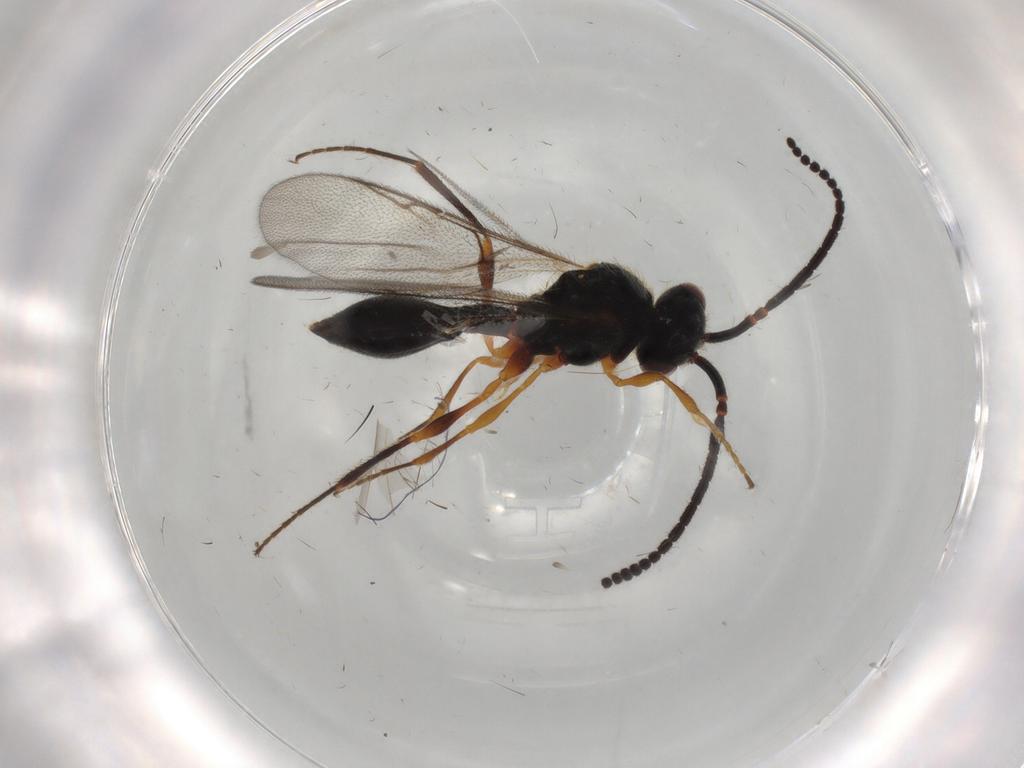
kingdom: Animalia
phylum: Arthropoda
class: Insecta
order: Hymenoptera
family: Diapriidae
